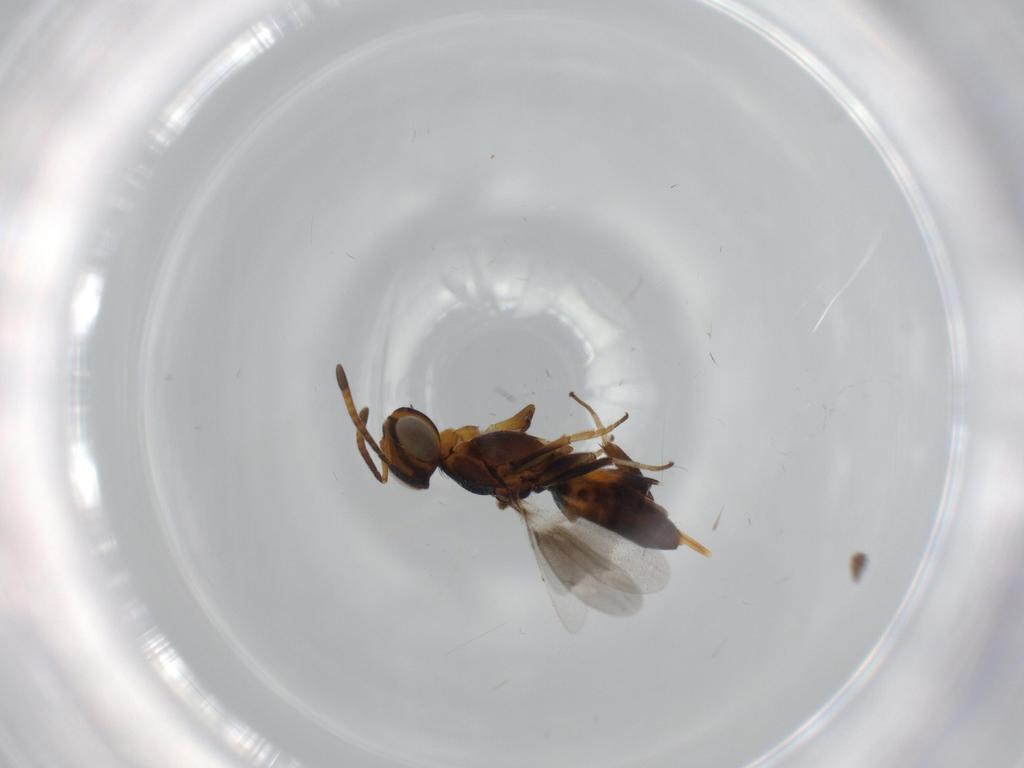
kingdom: Animalia
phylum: Arthropoda
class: Insecta
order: Hymenoptera
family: Eupelmidae
